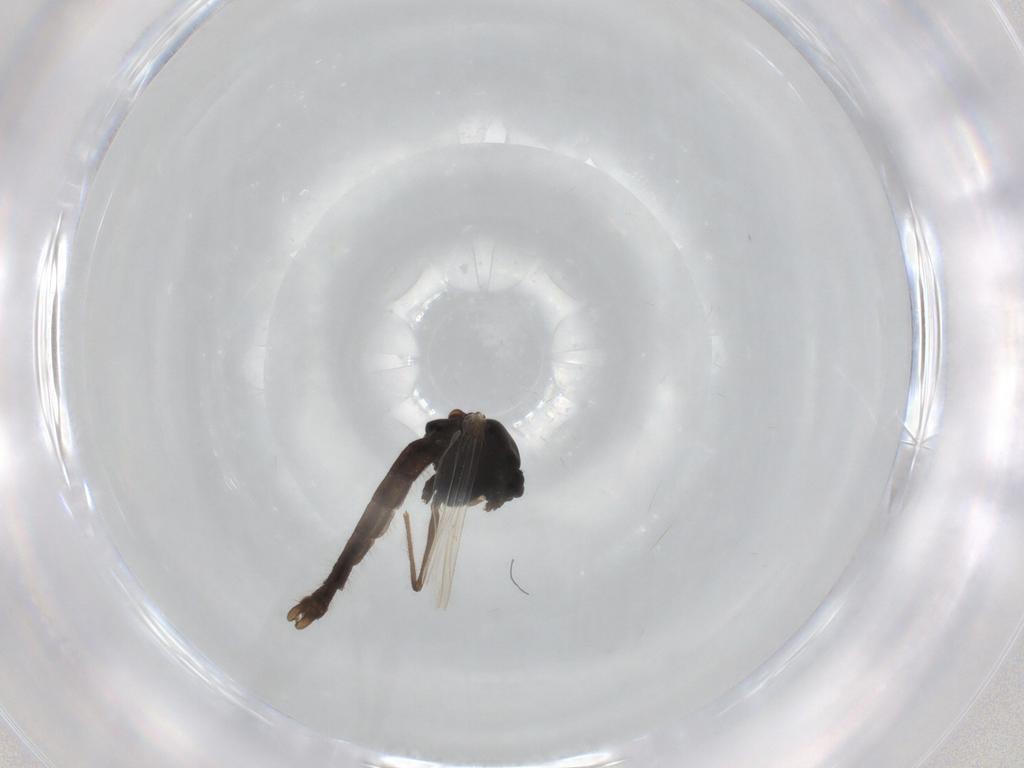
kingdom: Animalia
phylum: Arthropoda
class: Insecta
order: Diptera
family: Chironomidae
